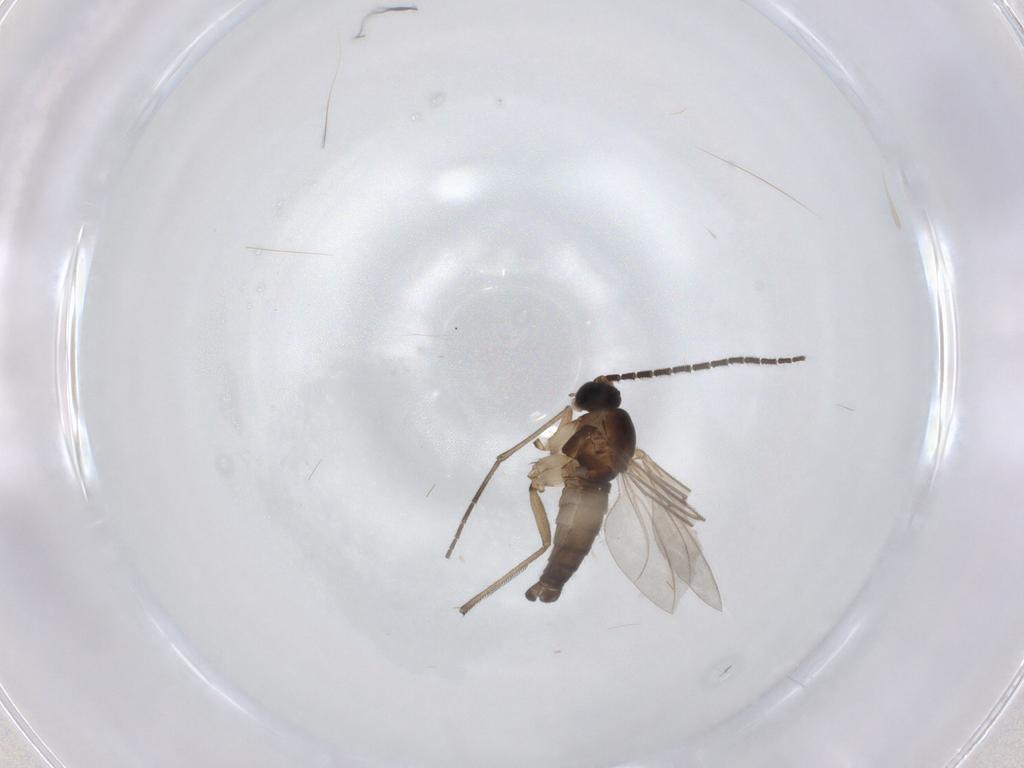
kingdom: Animalia
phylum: Arthropoda
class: Insecta
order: Diptera
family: Sciaridae
